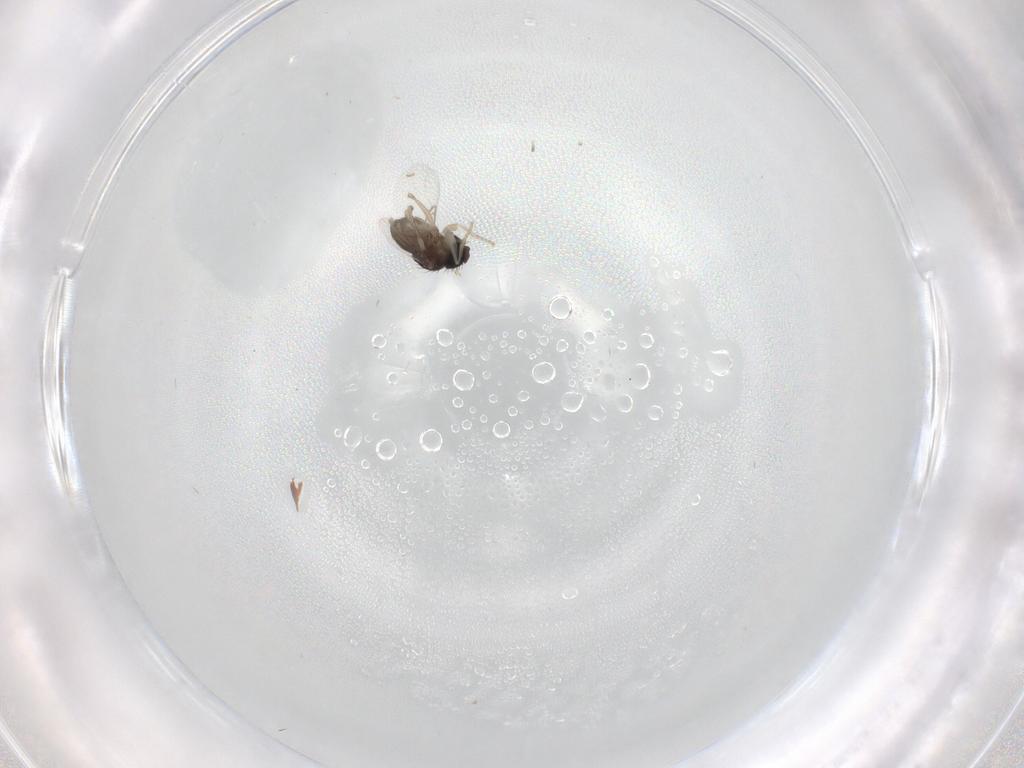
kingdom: Animalia
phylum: Arthropoda
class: Insecta
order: Diptera
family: Phoridae
